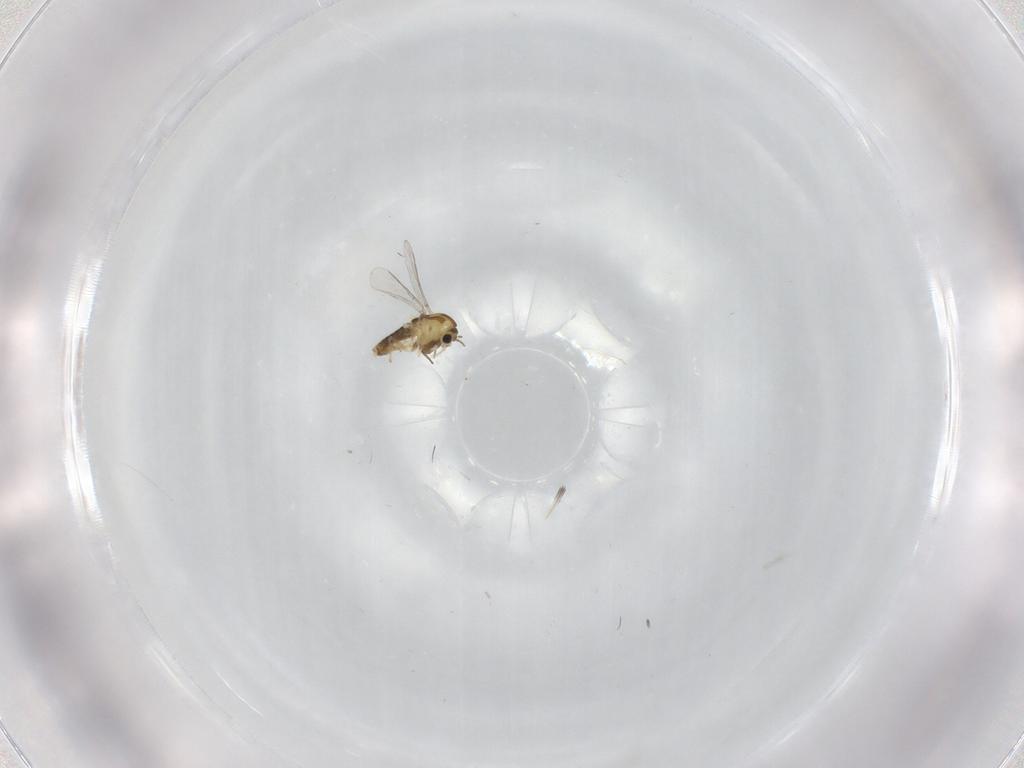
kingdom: Animalia
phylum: Arthropoda
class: Insecta
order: Diptera
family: Chironomidae
